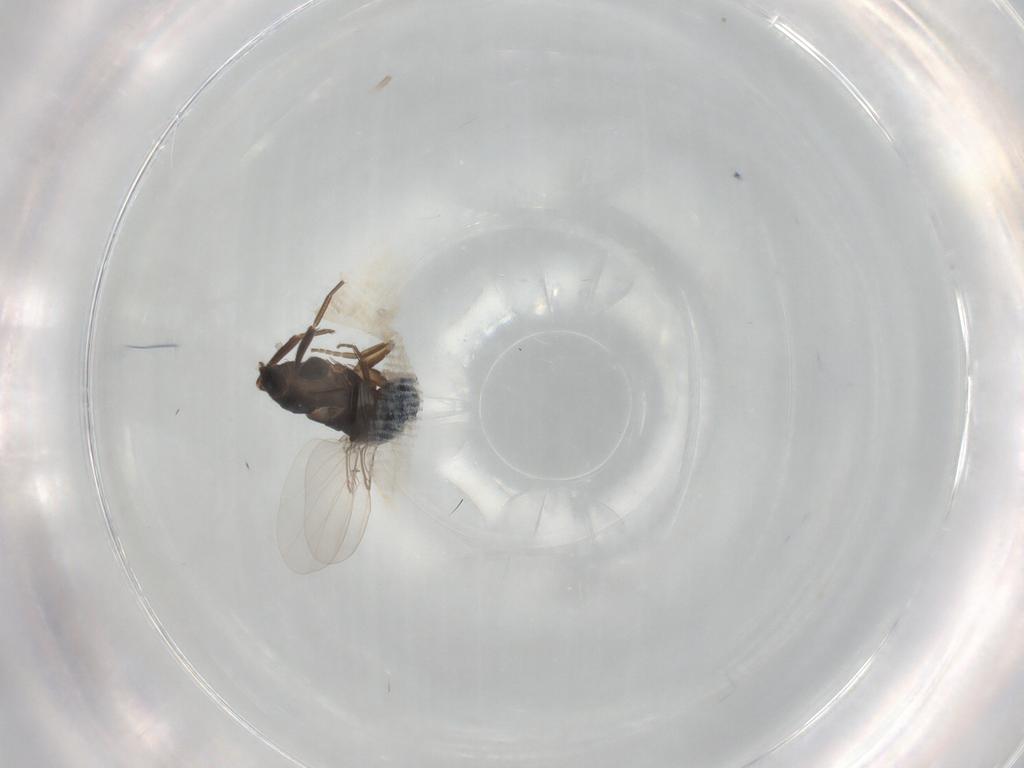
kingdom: Animalia
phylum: Arthropoda
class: Insecta
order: Diptera
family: Phoridae
